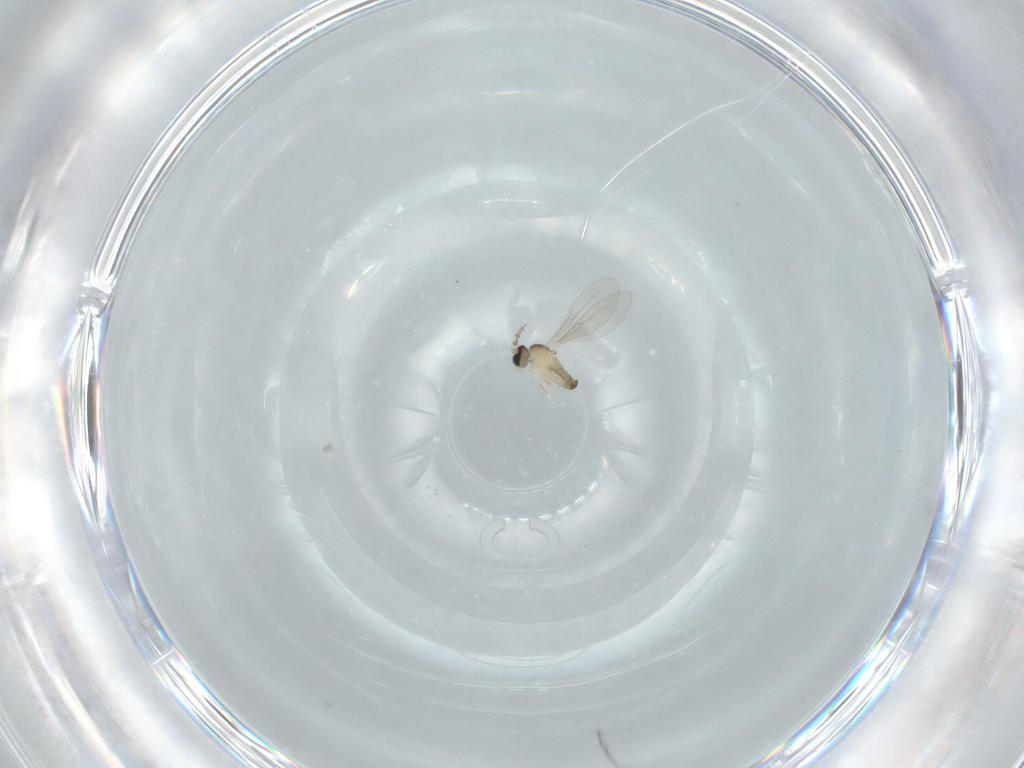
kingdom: Animalia
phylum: Arthropoda
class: Insecta
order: Diptera
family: Cecidomyiidae
